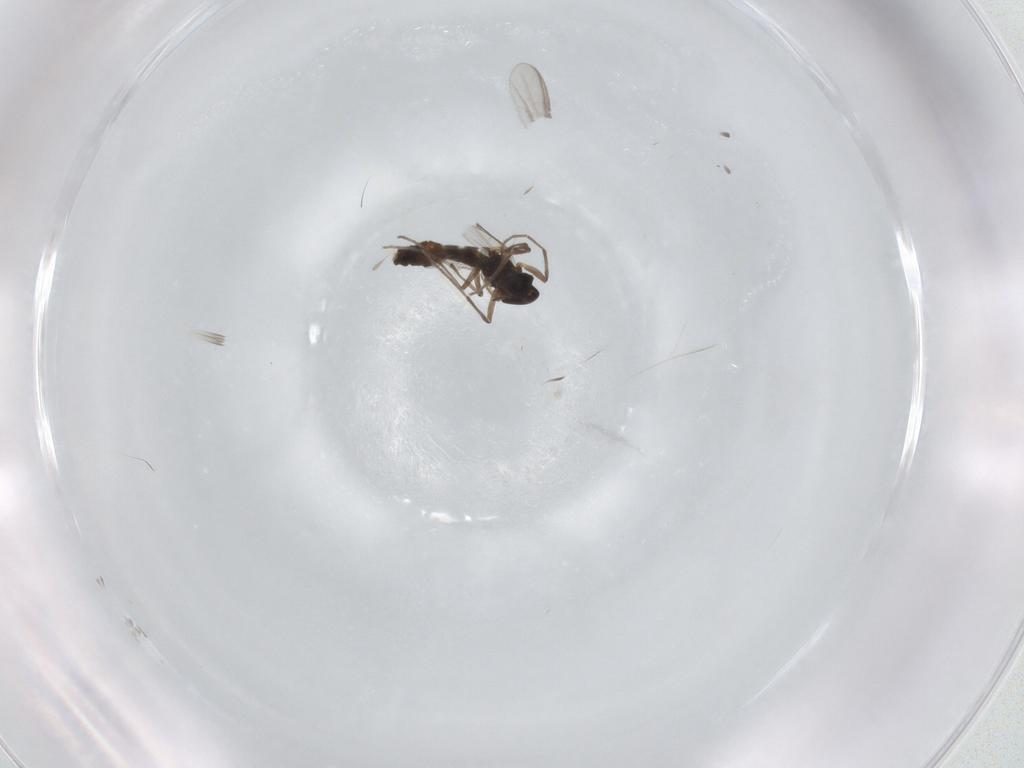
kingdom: Animalia
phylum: Arthropoda
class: Insecta
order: Diptera
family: Chironomidae
